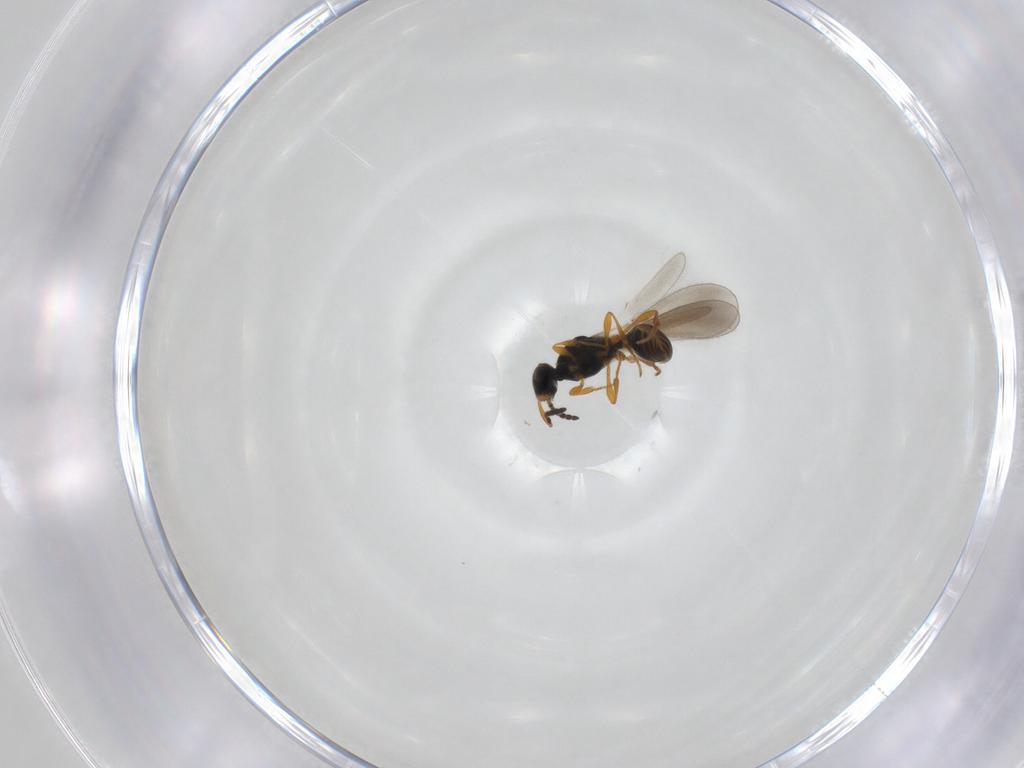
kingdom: Animalia
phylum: Arthropoda
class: Insecta
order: Hymenoptera
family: Platygastridae
